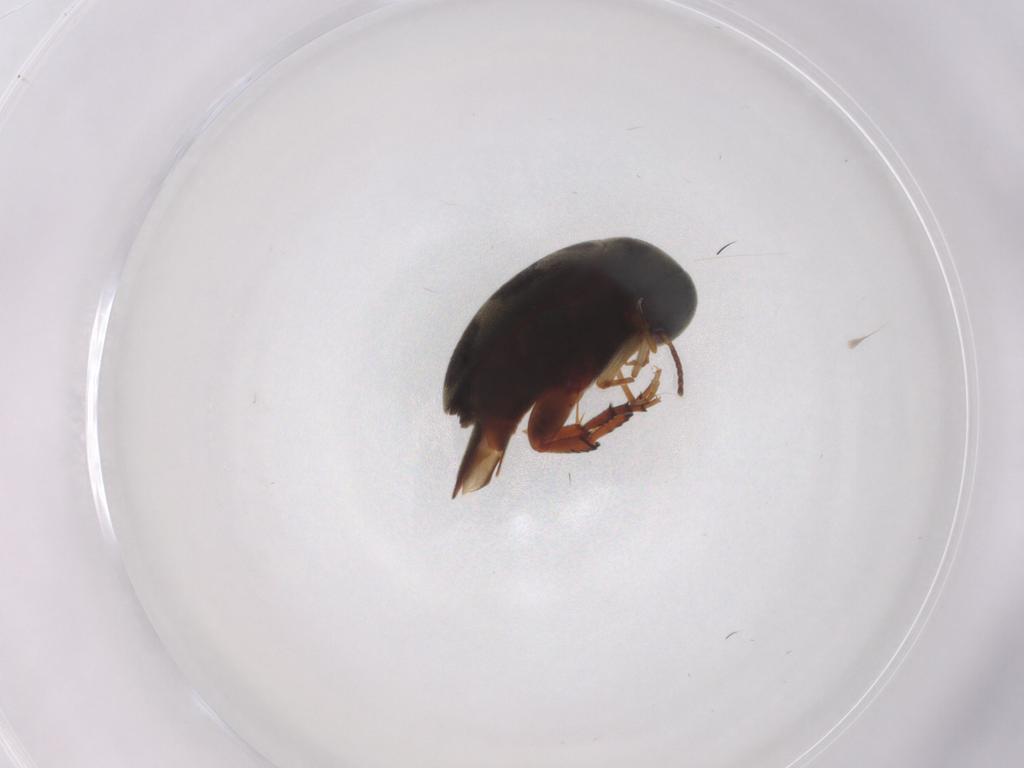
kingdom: Animalia
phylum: Arthropoda
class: Insecta
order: Coleoptera
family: Mordellidae
